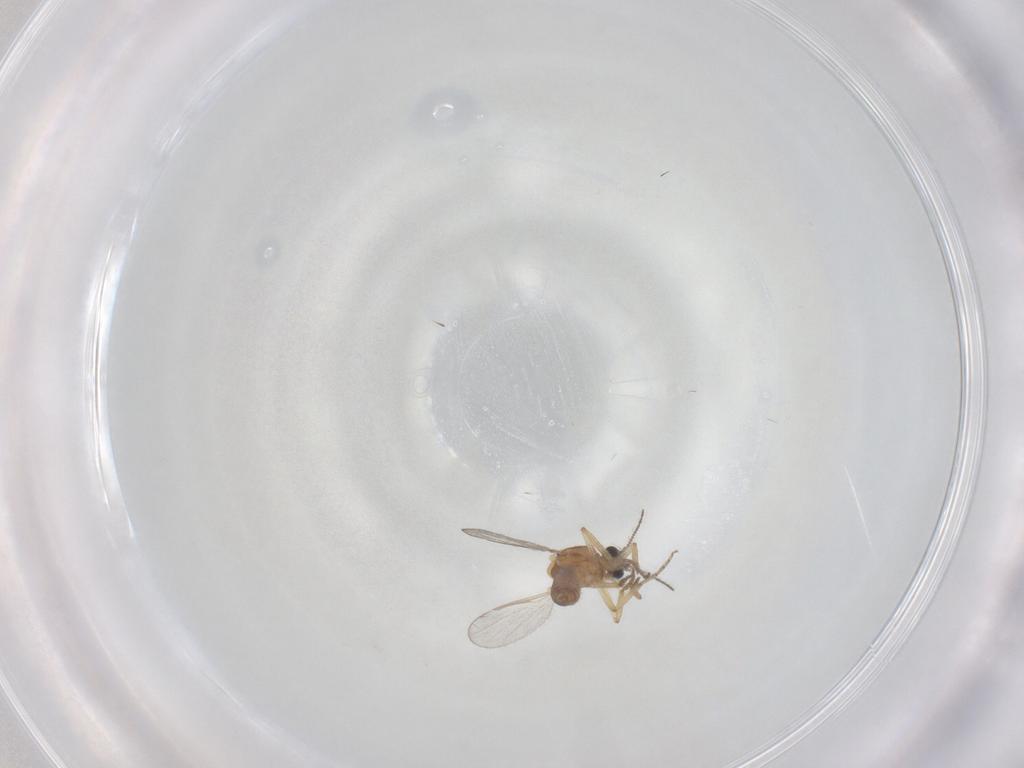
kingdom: Animalia
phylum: Arthropoda
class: Insecta
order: Diptera
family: Ceratopogonidae
